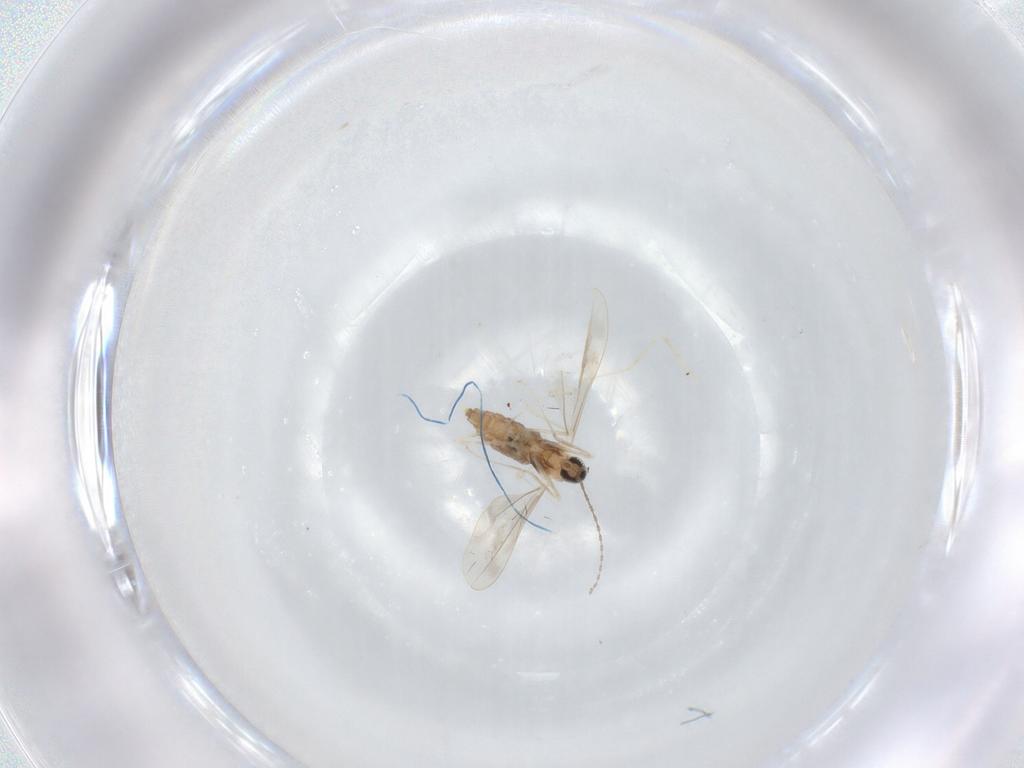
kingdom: Animalia
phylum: Arthropoda
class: Insecta
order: Diptera
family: Cecidomyiidae
